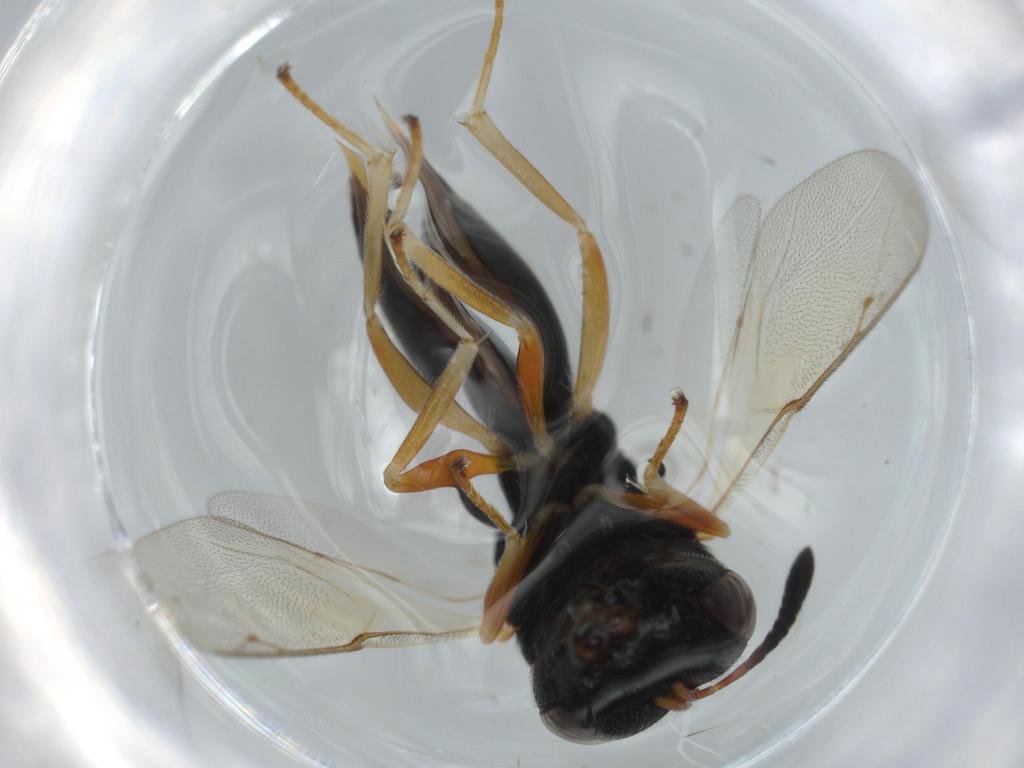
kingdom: Animalia
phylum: Arthropoda
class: Insecta
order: Hymenoptera
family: Pteromalidae
